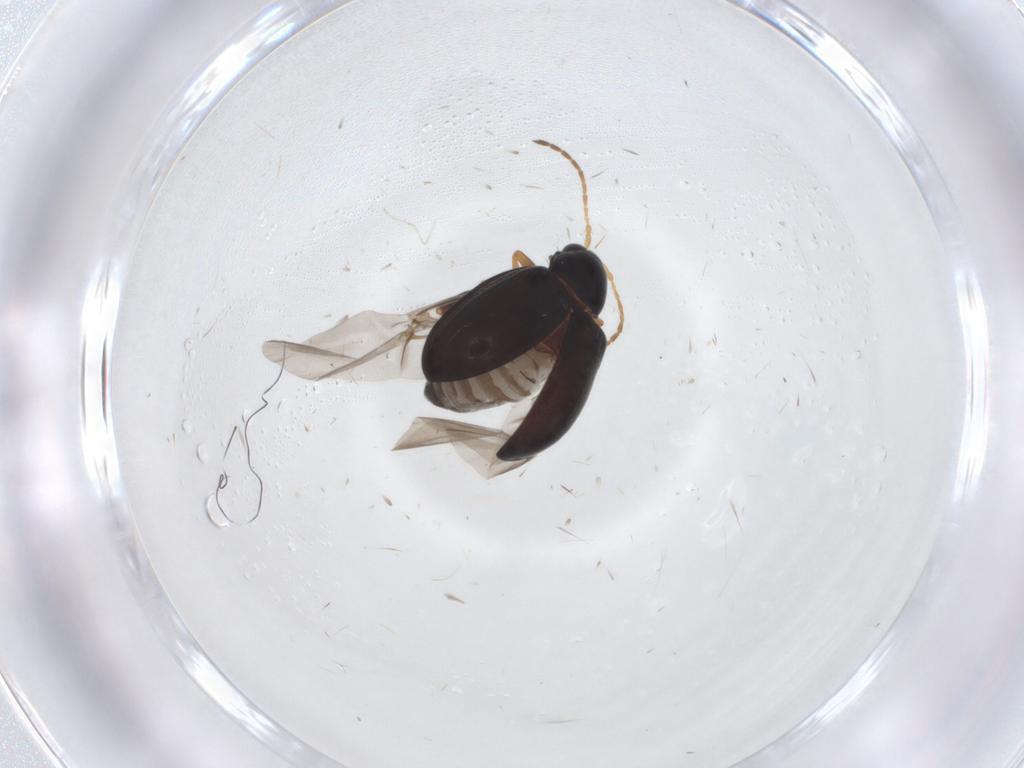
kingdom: Animalia
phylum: Arthropoda
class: Insecta
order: Coleoptera
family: Chrysomelidae
